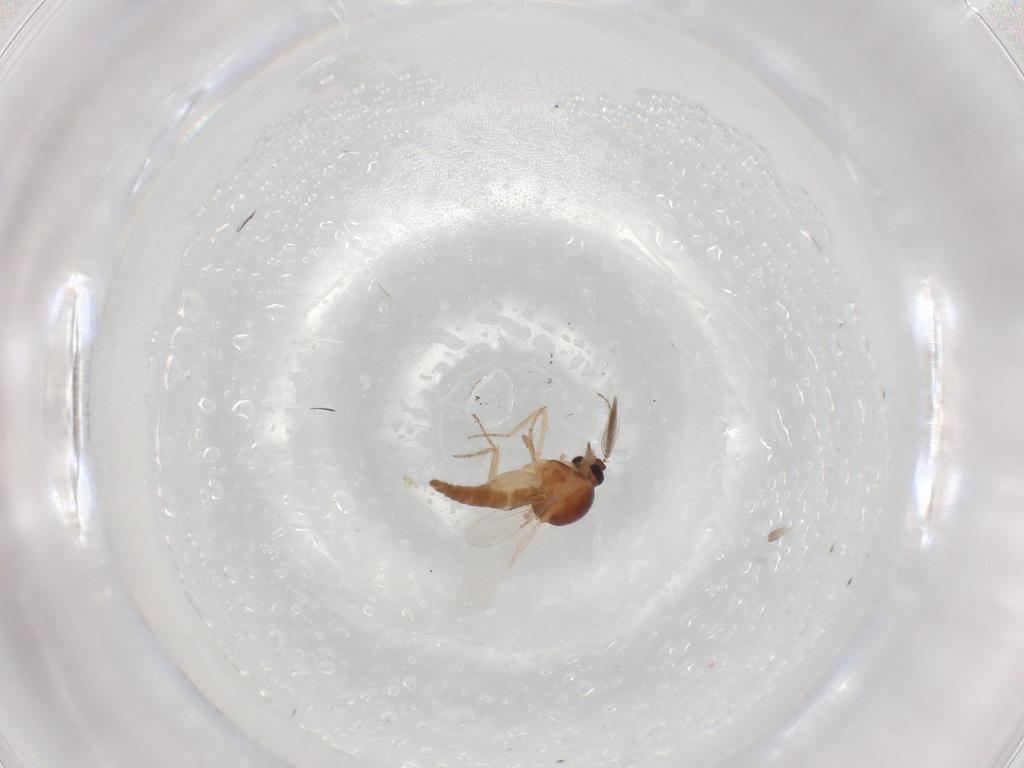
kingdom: Animalia
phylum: Arthropoda
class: Insecta
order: Diptera
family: Ceratopogonidae
